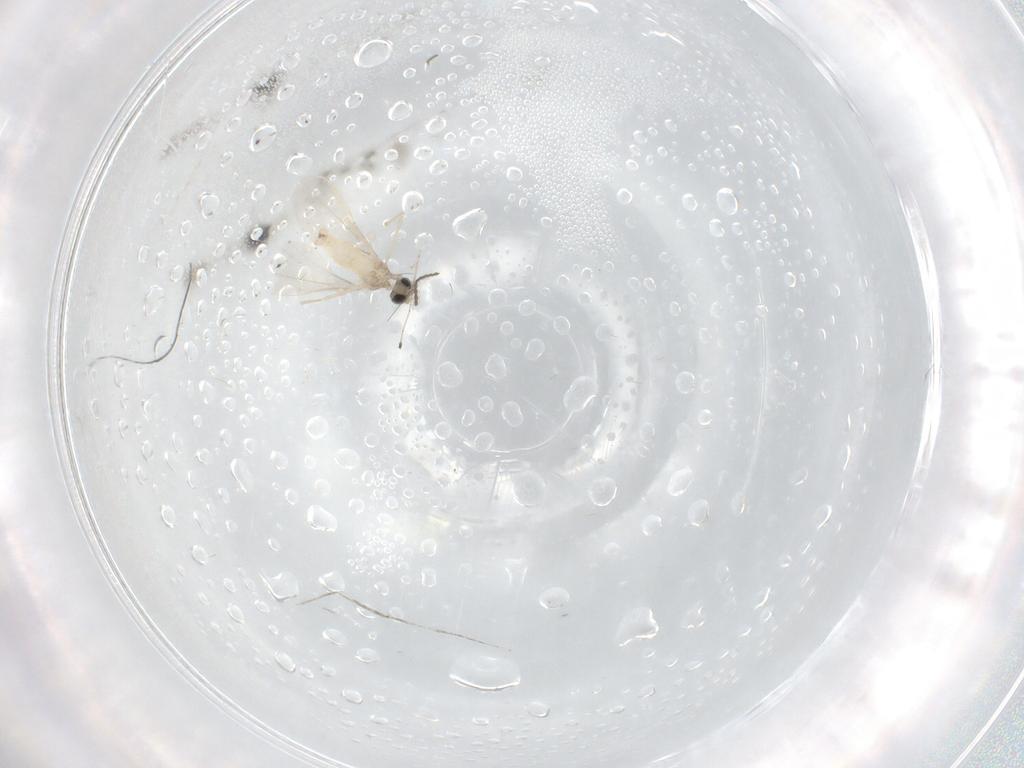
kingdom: Animalia
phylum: Arthropoda
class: Insecta
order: Diptera
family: Cecidomyiidae
